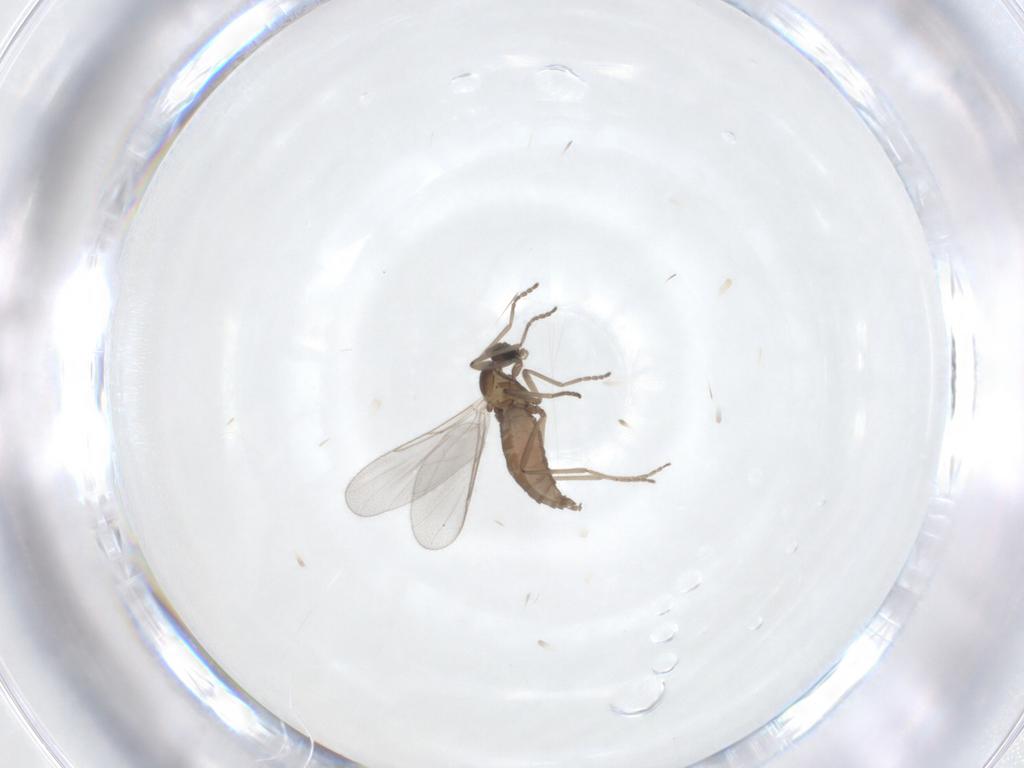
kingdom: Animalia
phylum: Arthropoda
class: Insecta
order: Diptera
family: Cecidomyiidae
